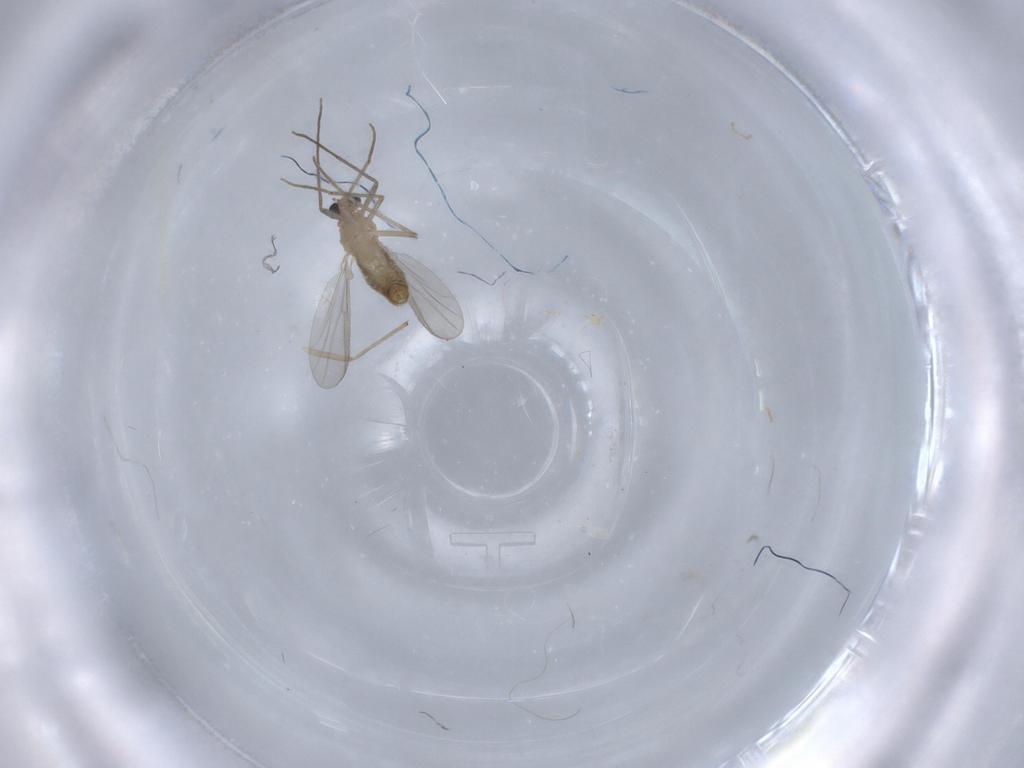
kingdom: Animalia
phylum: Arthropoda
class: Insecta
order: Diptera
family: Chironomidae
